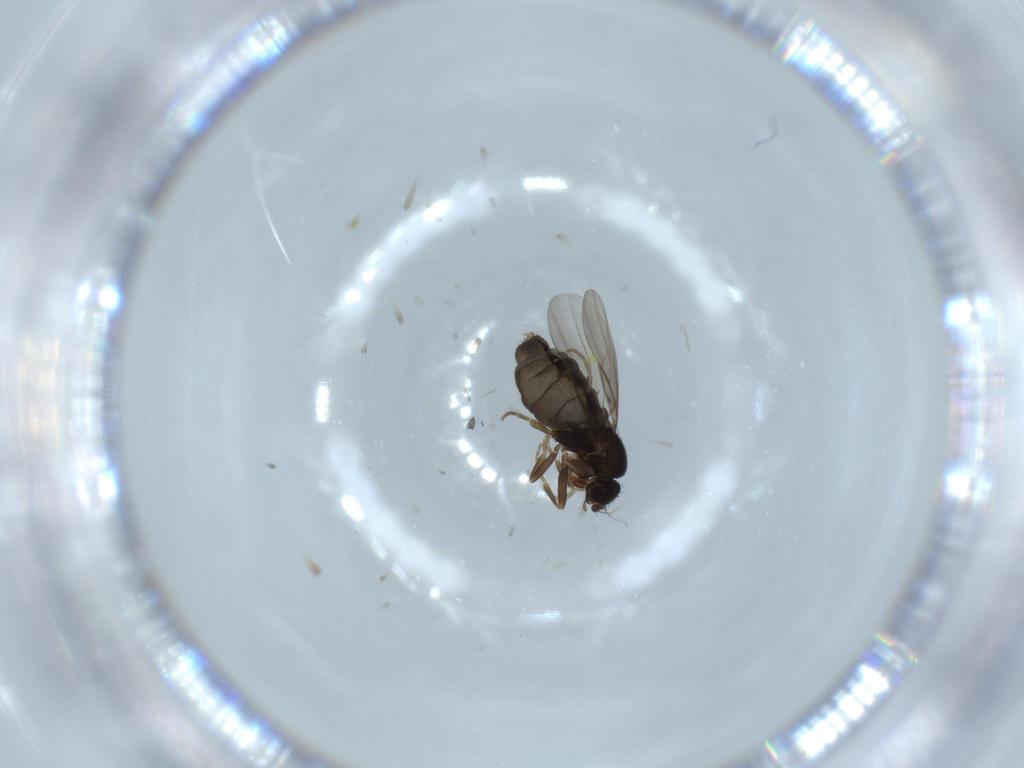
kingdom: Animalia
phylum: Arthropoda
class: Insecta
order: Diptera
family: Phoridae
